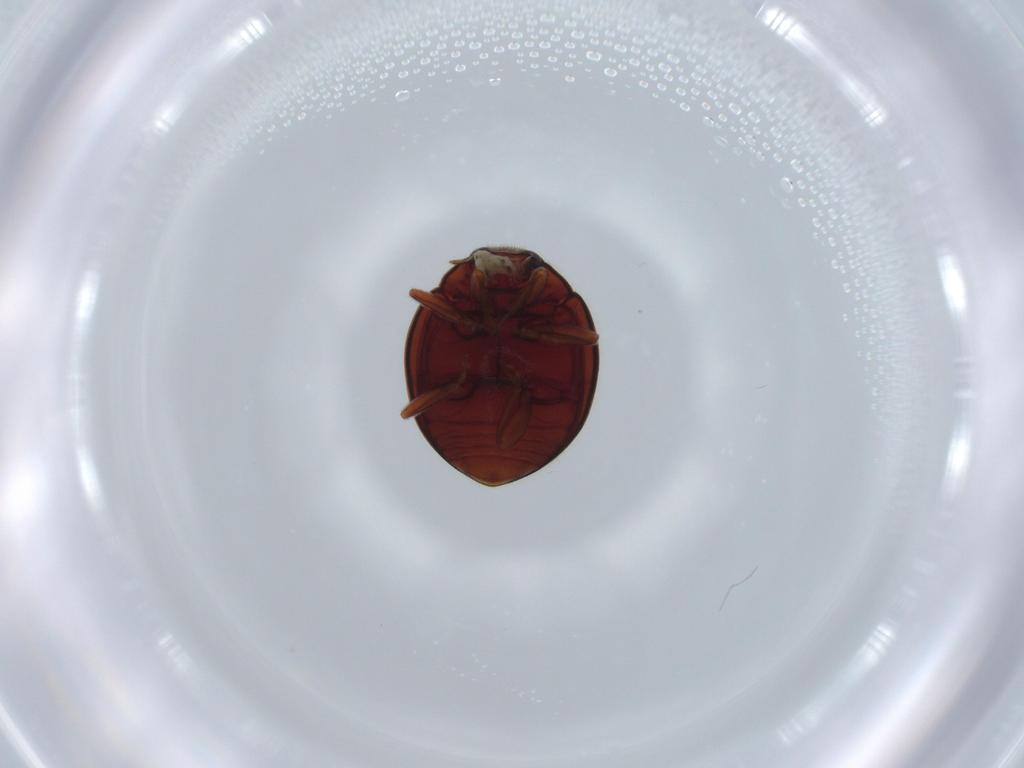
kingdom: Animalia
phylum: Arthropoda
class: Insecta
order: Coleoptera
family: Coccinellidae
